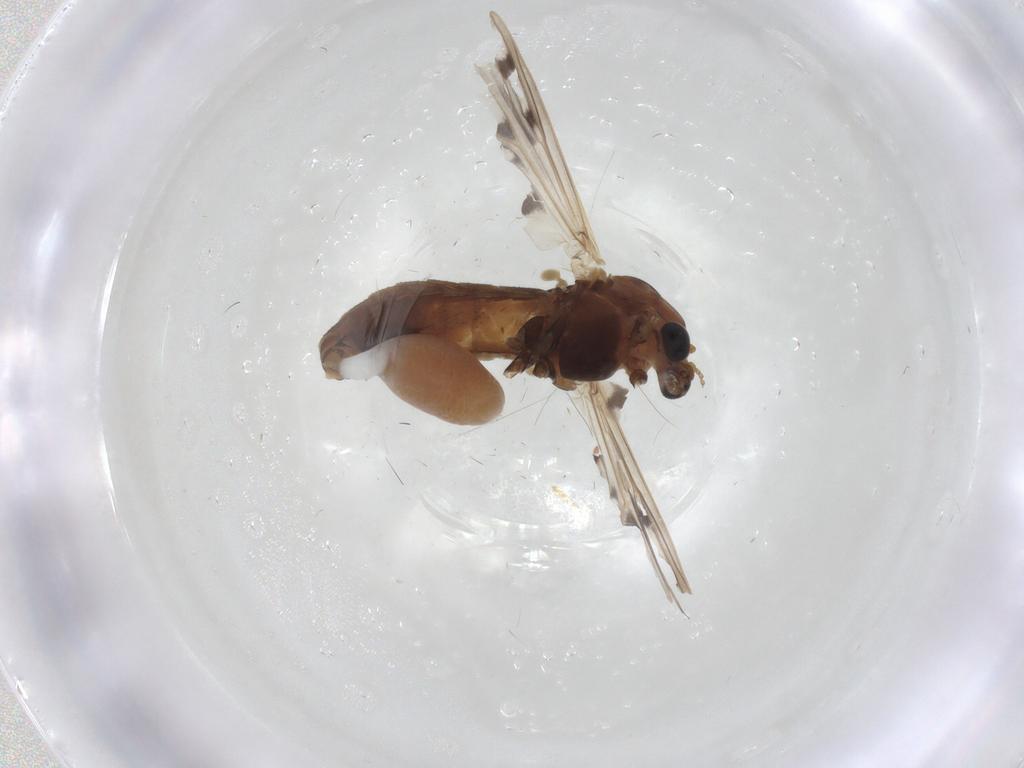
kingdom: Animalia
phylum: Arthropoda
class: Insecta
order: Diptera
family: Chironomidae
